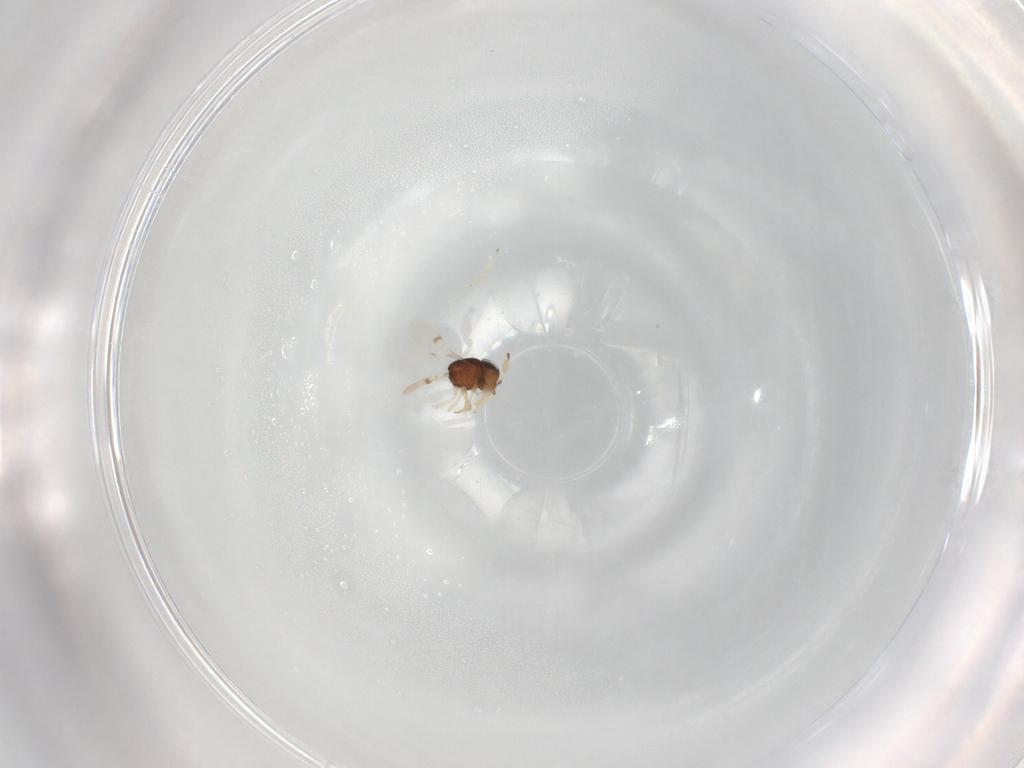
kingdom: Animalia
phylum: Arthropoda
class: Insecta
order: Hymenoptera
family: Scelionidae
